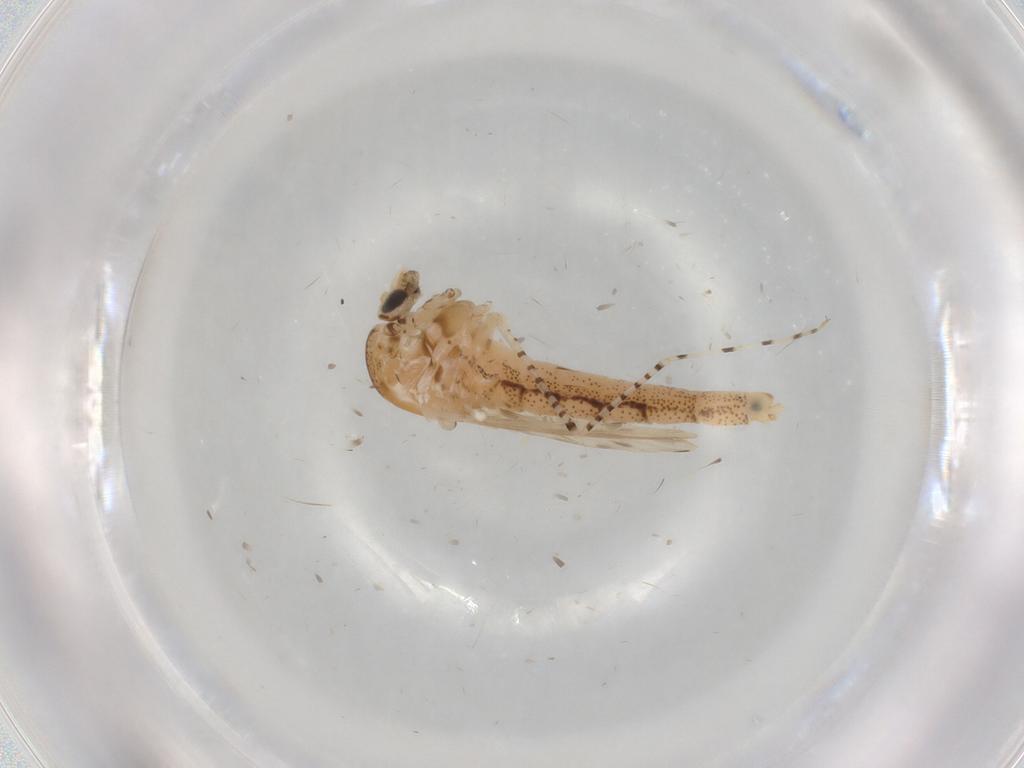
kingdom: Animalia
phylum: Arthropoda
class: Insecta
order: Diptera
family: Chaoboridae
